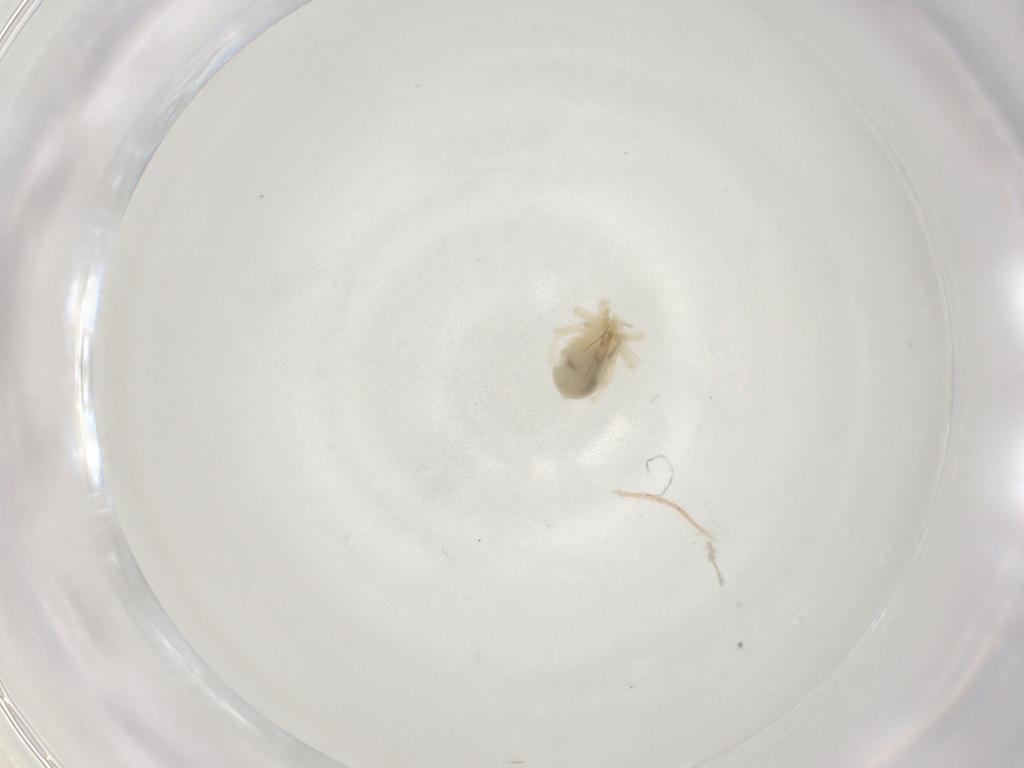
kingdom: Animalia
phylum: Arthropoda
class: Arachnida
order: Trombidiformes
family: Anystidae
